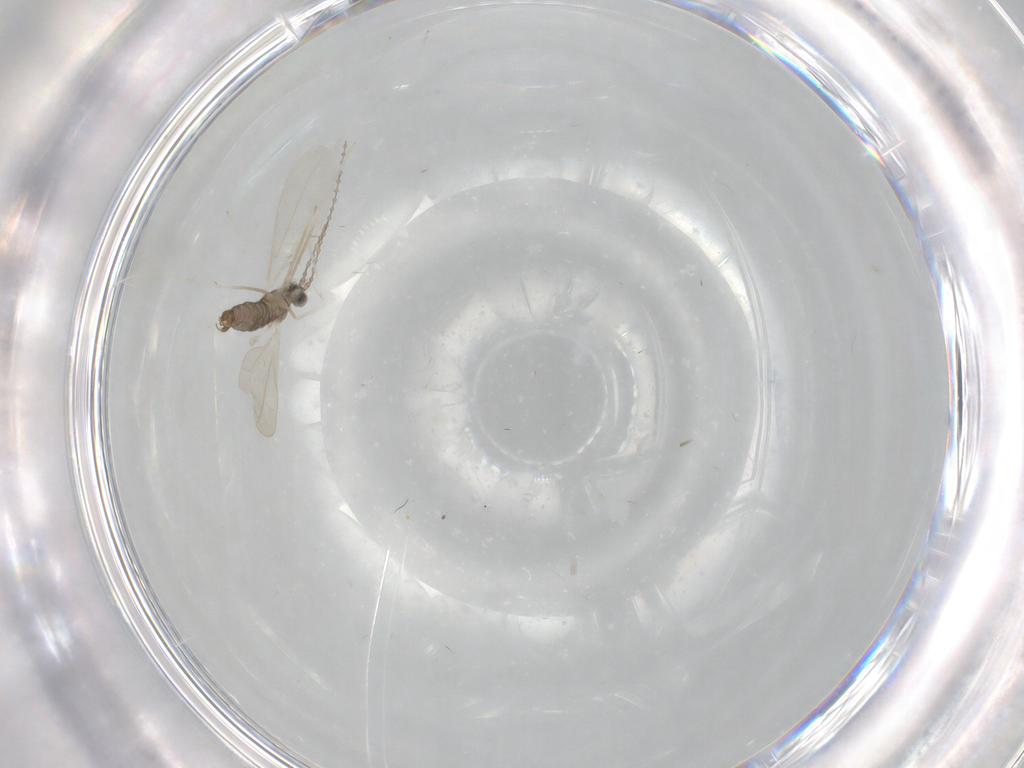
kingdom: Animalia
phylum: Arthropoda
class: Insecta
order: Diptera
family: Cecidomyiidae
